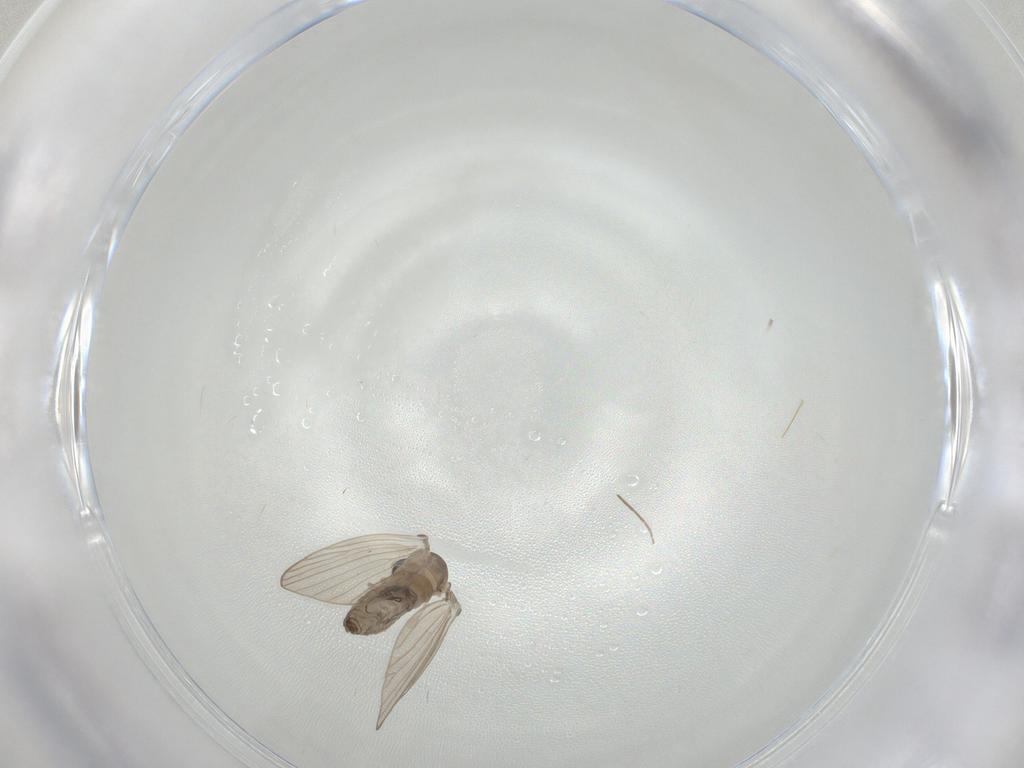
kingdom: Animalia
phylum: Arthropoda
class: Insecta
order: Diptera
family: Psychodidae
